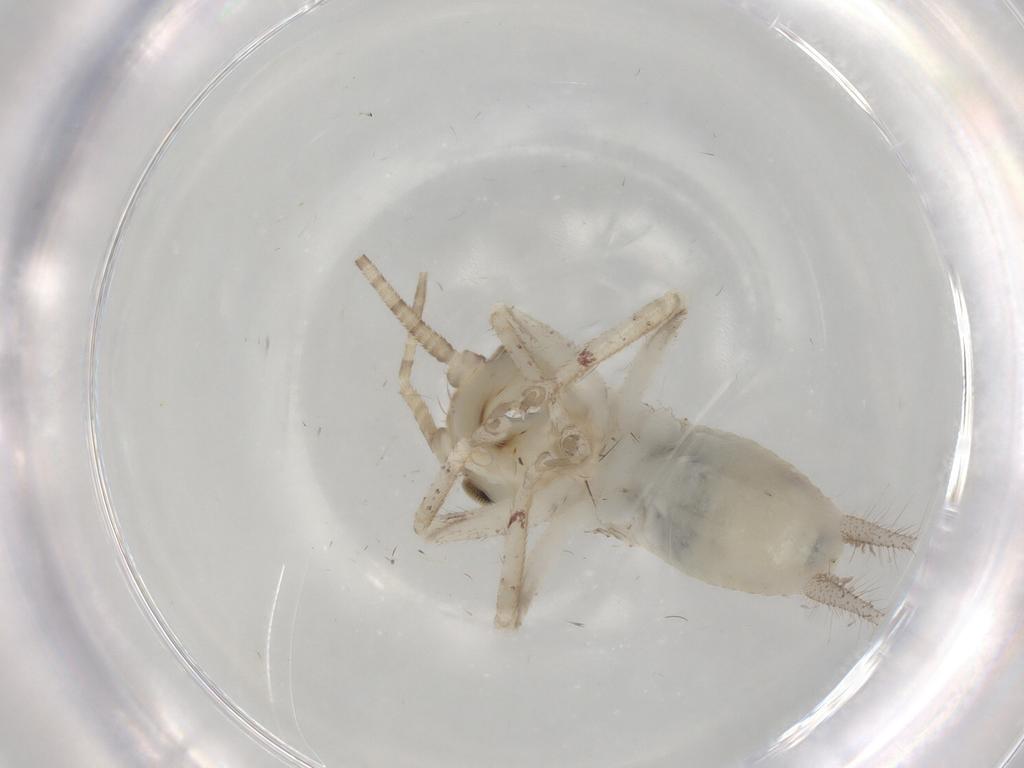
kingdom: Animalia
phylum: Arthropoda
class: Insecta
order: Orthoptera
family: Gryllidae
